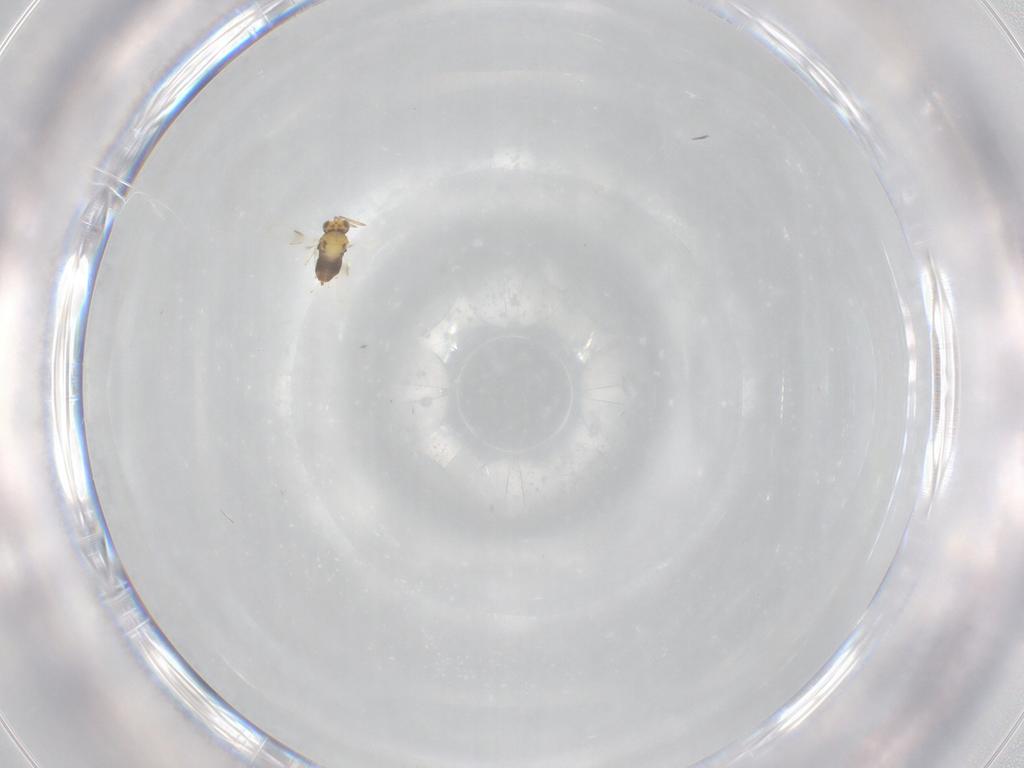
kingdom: Animalia
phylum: Arthropoda
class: Insecta
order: Hymenoptera
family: Aphelinidae
